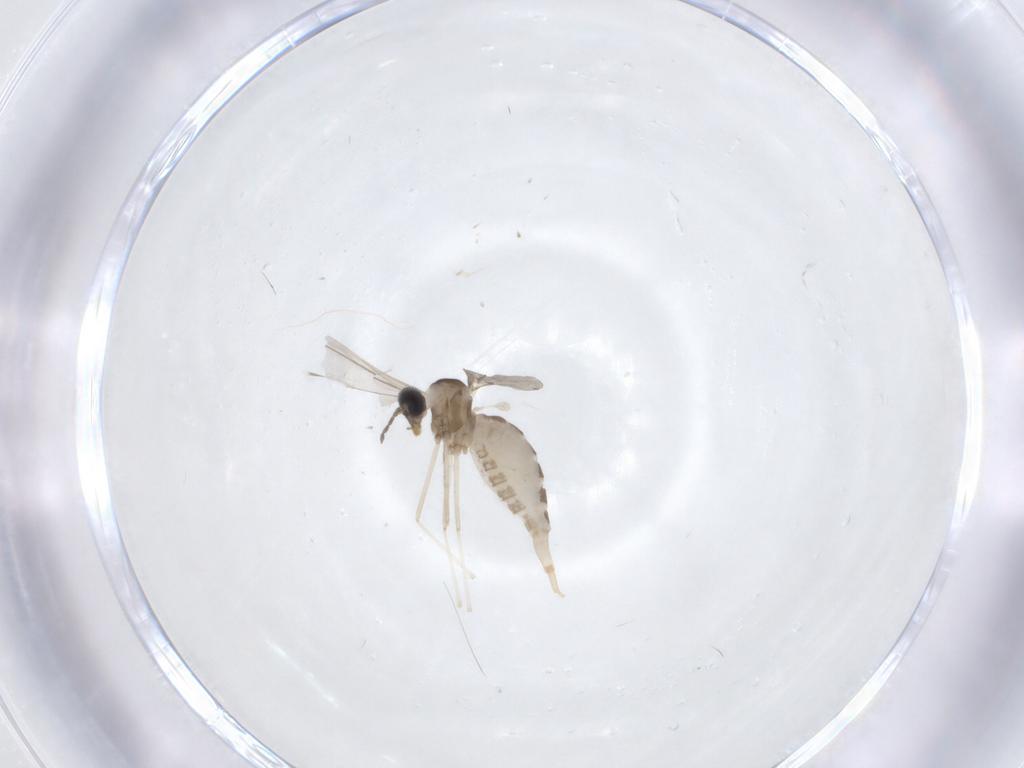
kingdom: Animalia
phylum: Arthropoda
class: Insecta
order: Diptera
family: Cecidomyiidae
